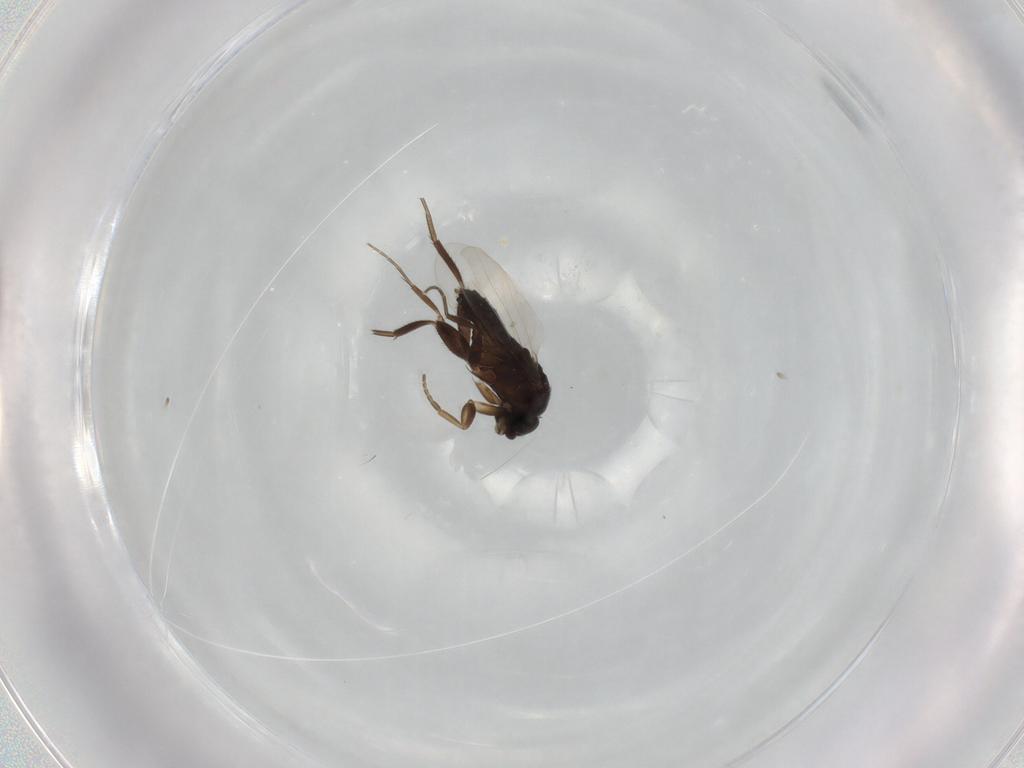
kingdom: Animalia
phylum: Arthropoda
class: Insecta
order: Diptera
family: Phoridae
